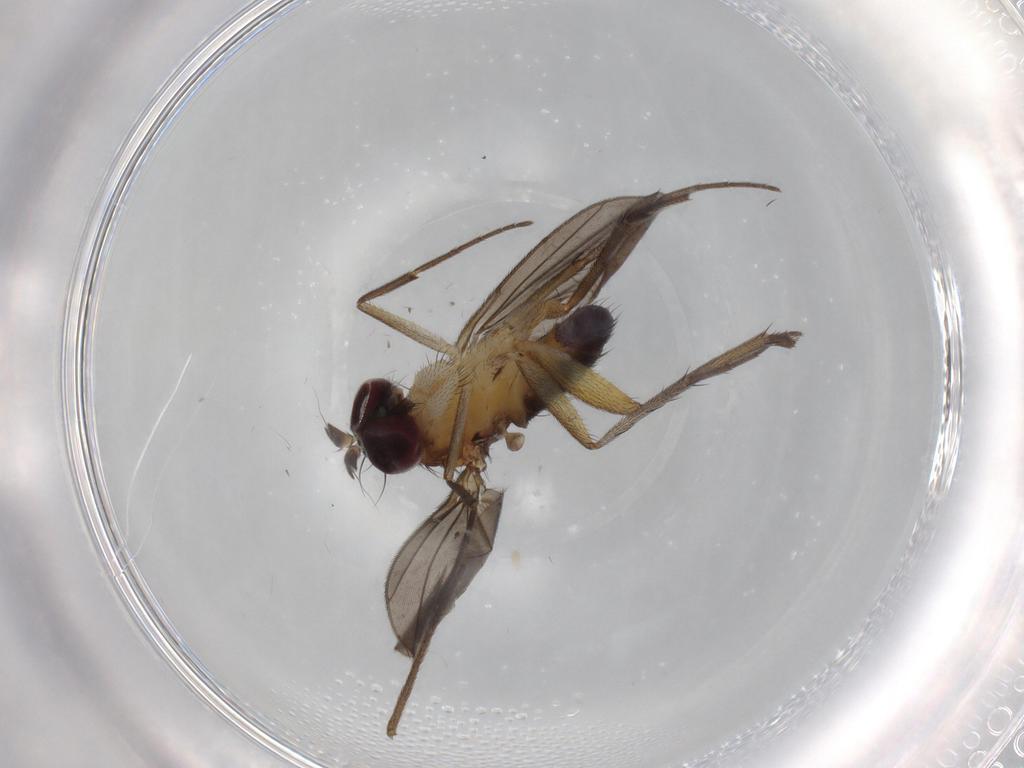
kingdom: Animalia
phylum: Arthropoda
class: Insecta
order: Diptera
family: Dolichopodidae
